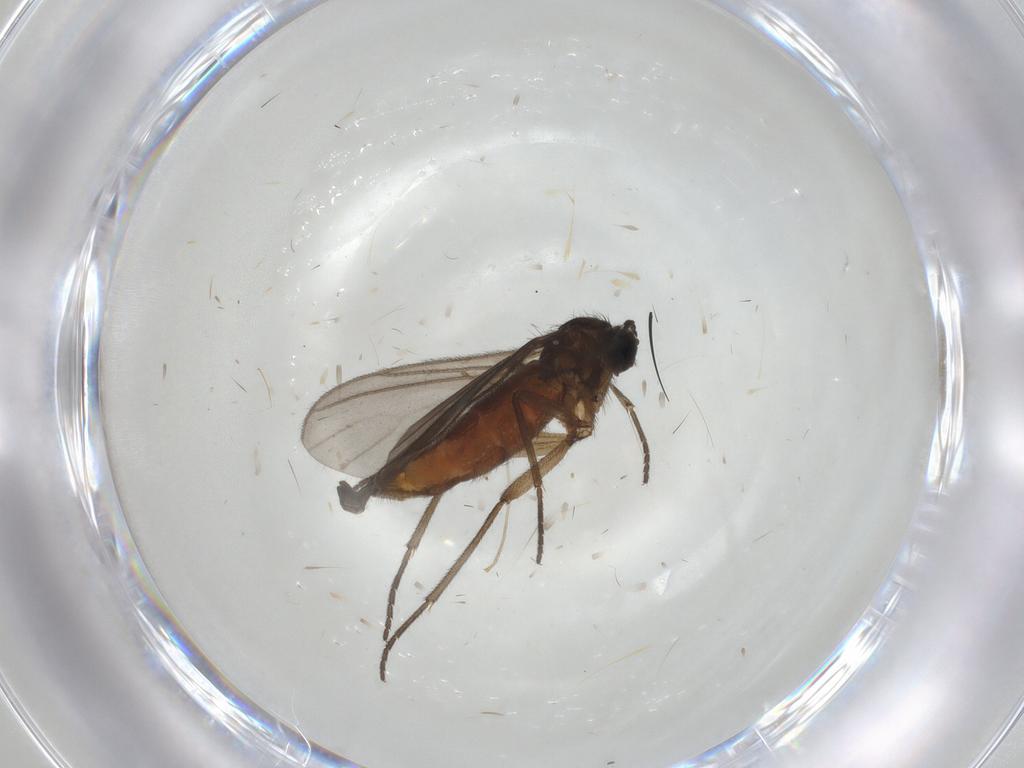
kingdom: Animalia
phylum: Arthropoda
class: Insecta
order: Diptera
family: Sciaridae
